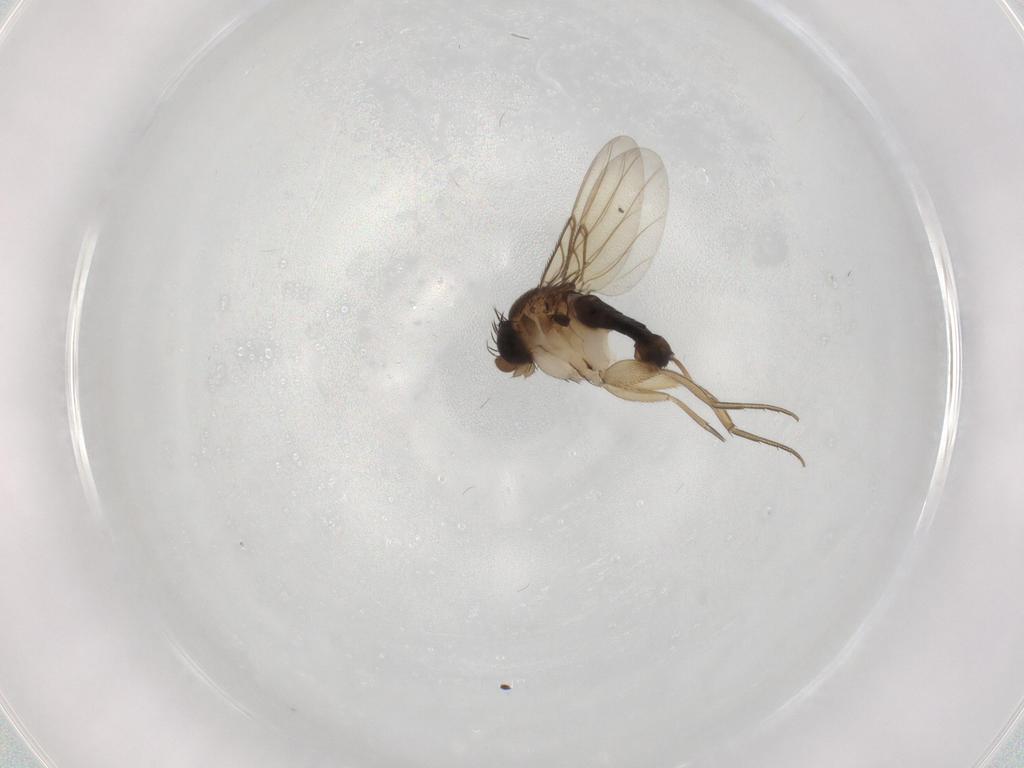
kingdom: Animalia
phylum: Arthropoda
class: Insecta
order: Diptera
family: Phoridae
